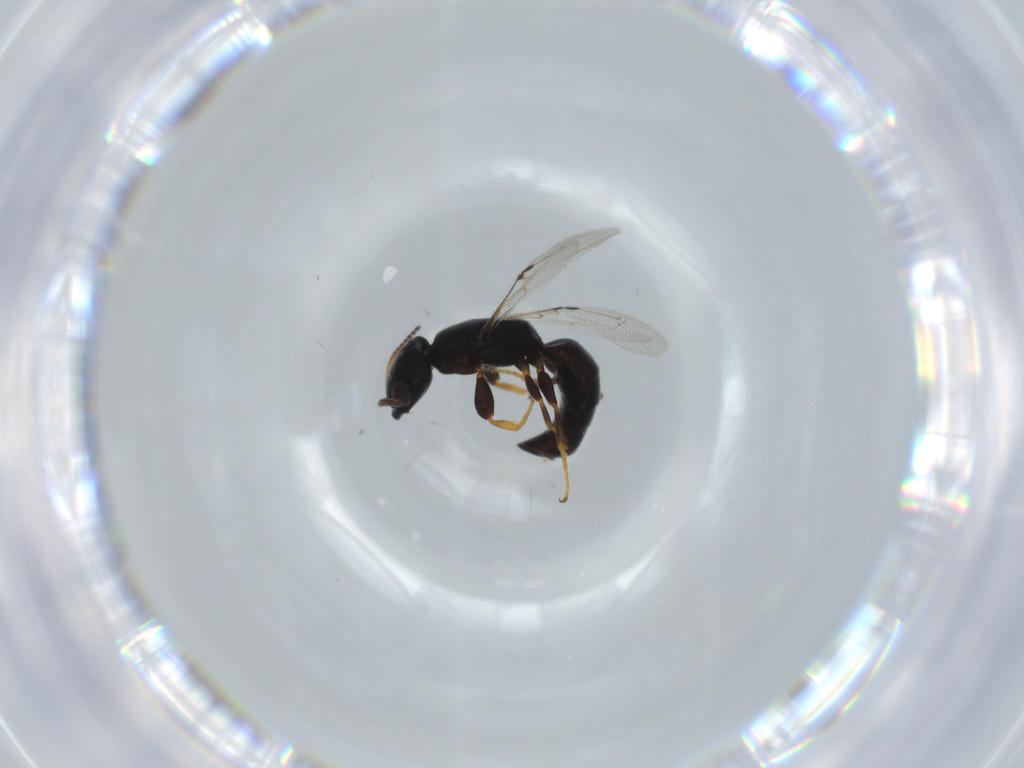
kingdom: Animalia
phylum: Arthropoda
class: Insecta
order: Hymenoptera
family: Bethylidae
